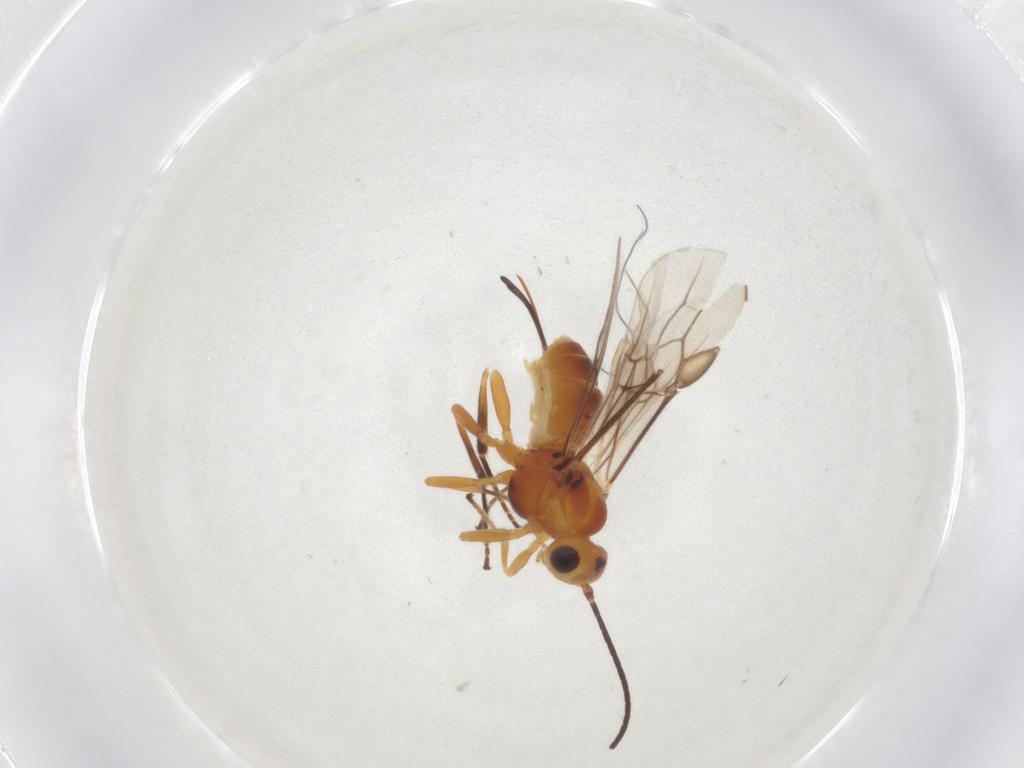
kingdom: Animalia
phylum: Arthropoda
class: Insecta
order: Hymenoptera
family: Braconidae
